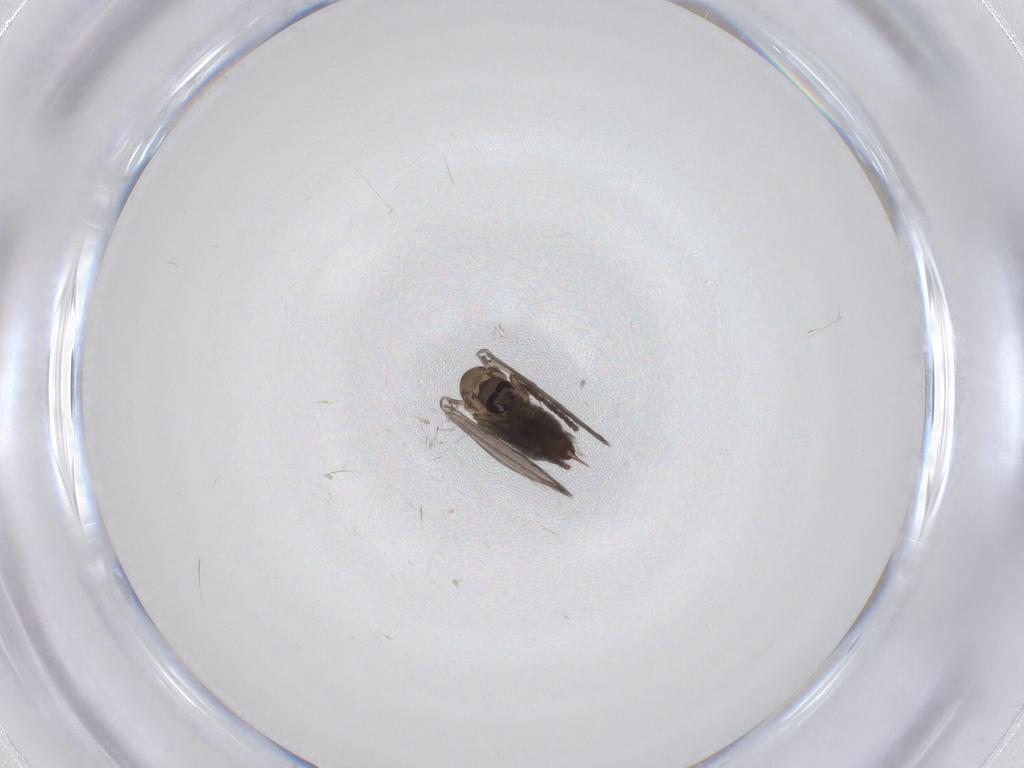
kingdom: Animalia
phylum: Arthropoda
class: Insecta
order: Diptera
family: Psychodidae
